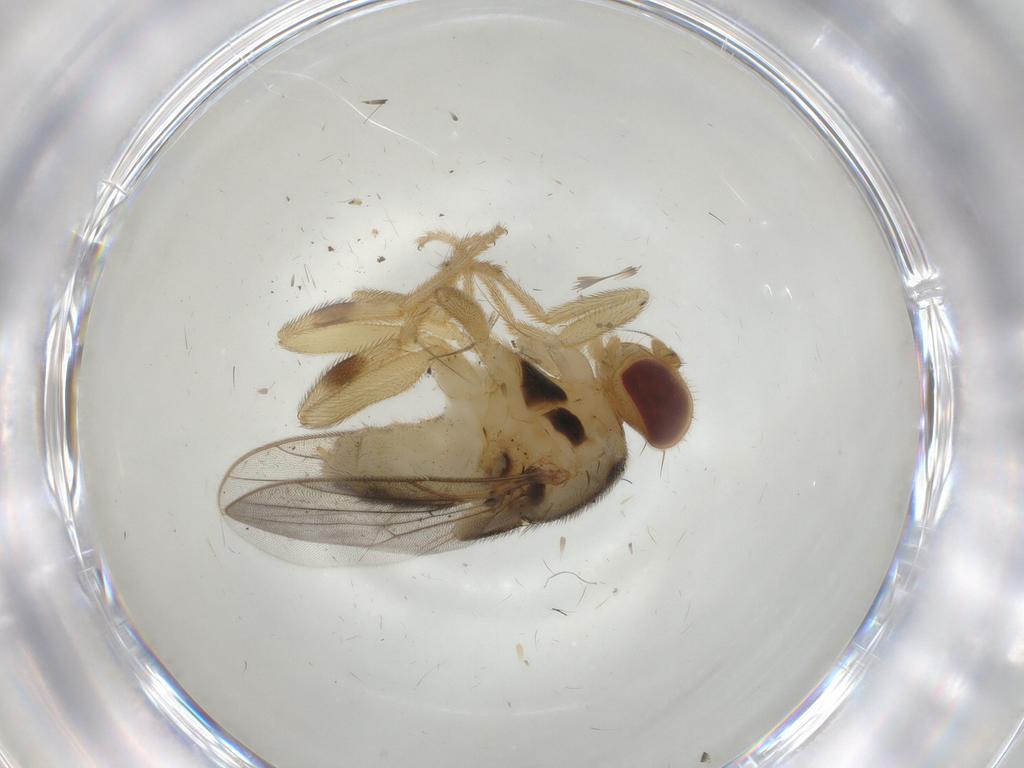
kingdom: Animalia
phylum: Arthropoda
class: Insecta
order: Diptera
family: Chloropidae
